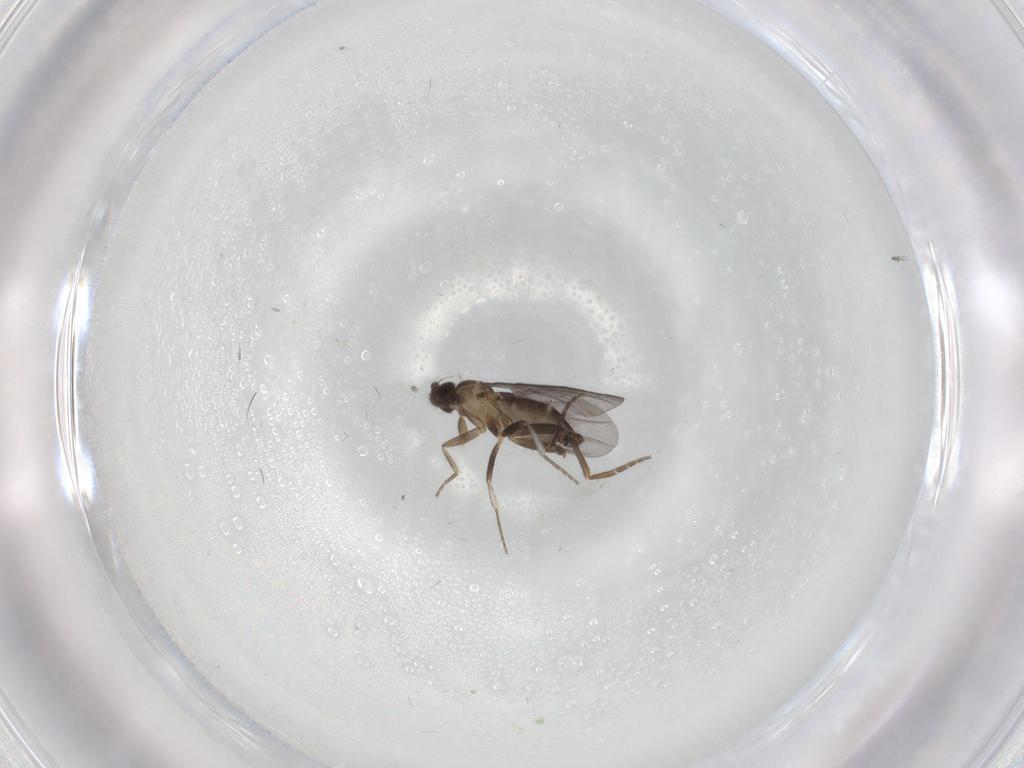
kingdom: Animalia
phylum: Arthropoda
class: Insecta
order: Diptera
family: Phoridae
